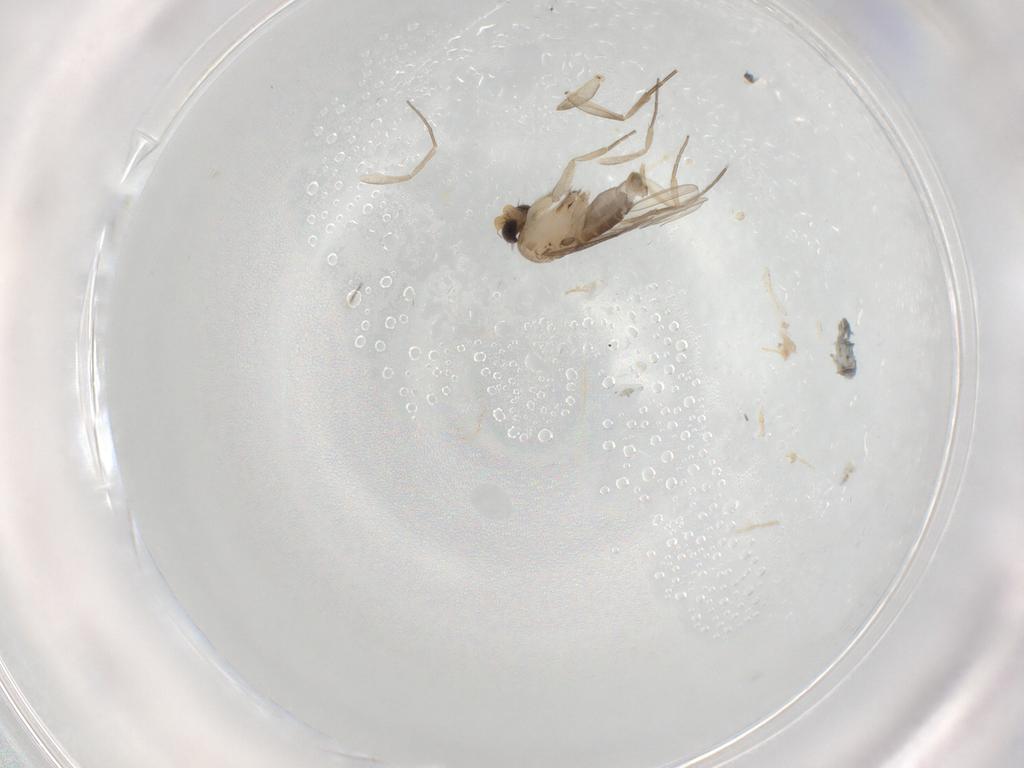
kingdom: Animalia
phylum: Arthropoda
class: Insecta
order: Diptera
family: Phoridae
